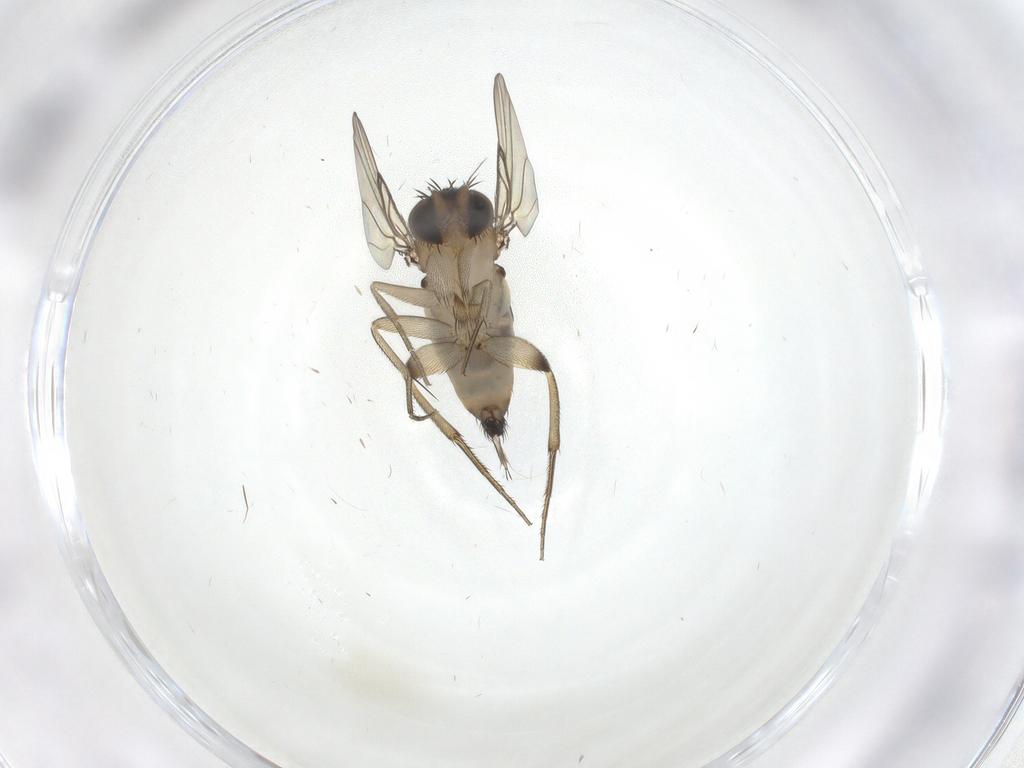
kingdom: Animalia
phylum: Arthropoda
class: Insecta
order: Diptera
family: Phoridae
